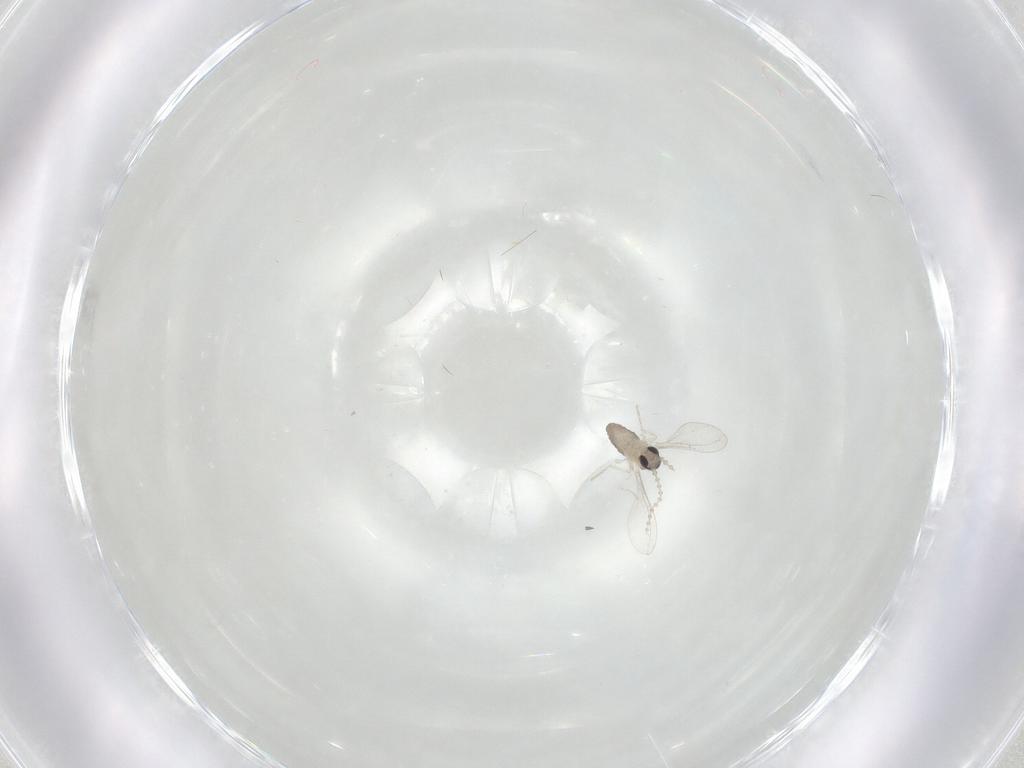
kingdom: Animalia
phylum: Arthropoda
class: Insecta
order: Diptera
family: Cecidomyiidae
